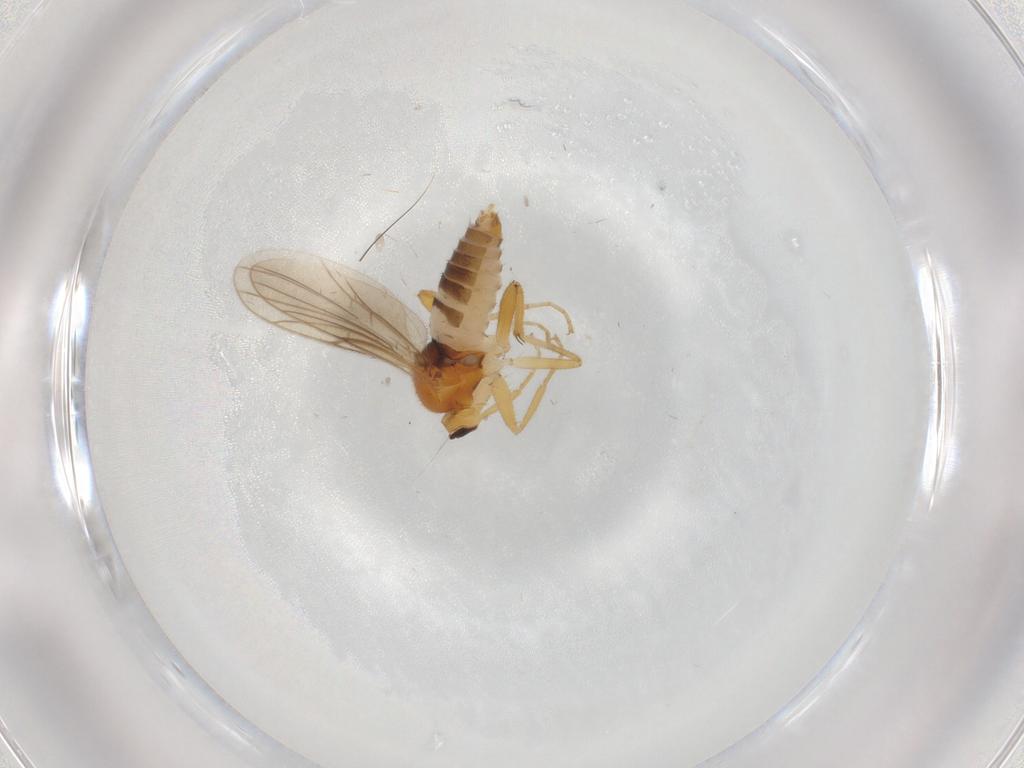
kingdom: Animalia
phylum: Arthropoda
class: Insecta
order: Diptera
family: Hybotidae
